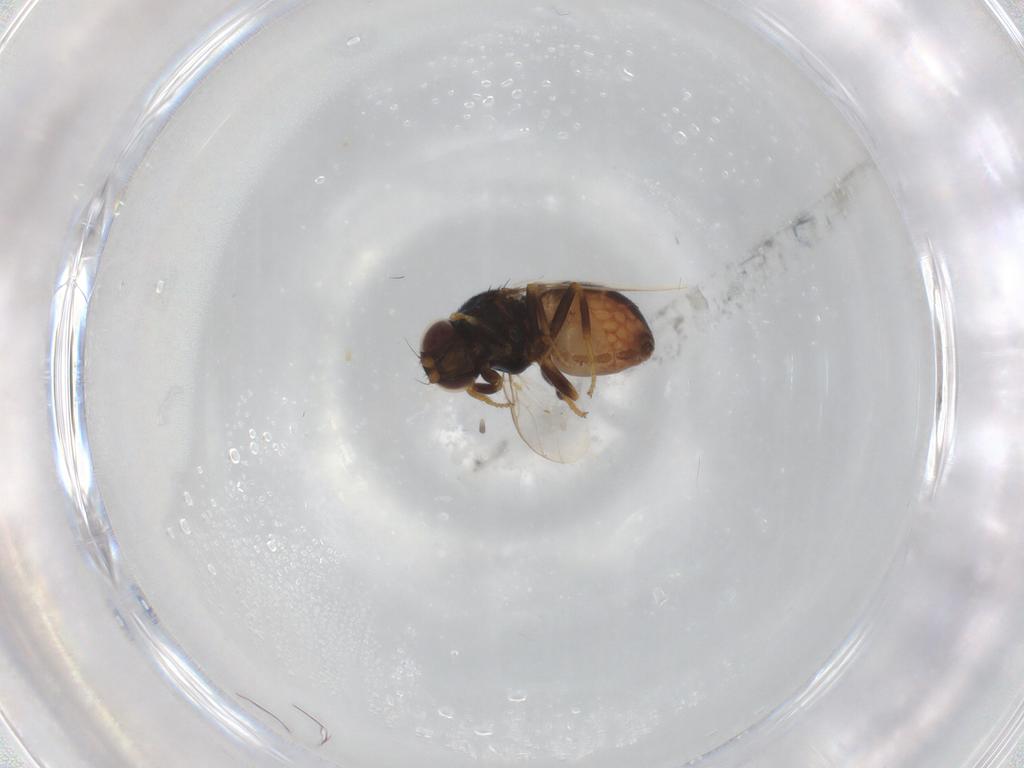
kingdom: Animalia
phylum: Arthropoda
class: Insecta
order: Diptera
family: Chloropidae
